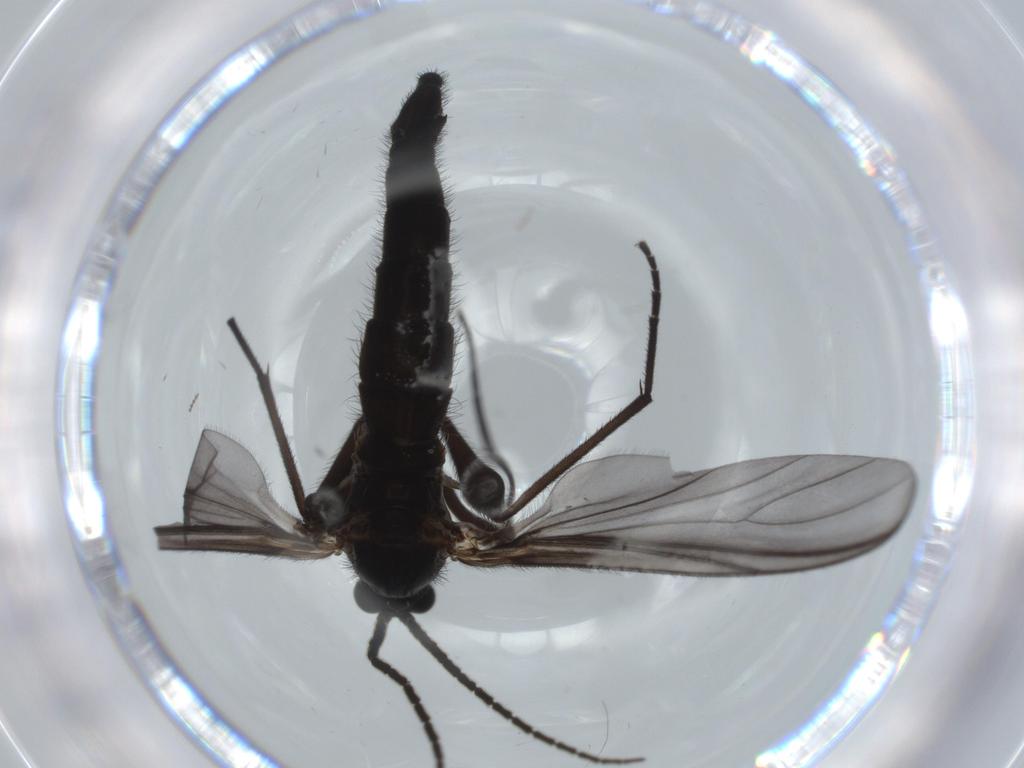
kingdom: Animalia
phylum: Arthropoda
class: Insecta
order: Diptera
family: Cecidomyiidae
